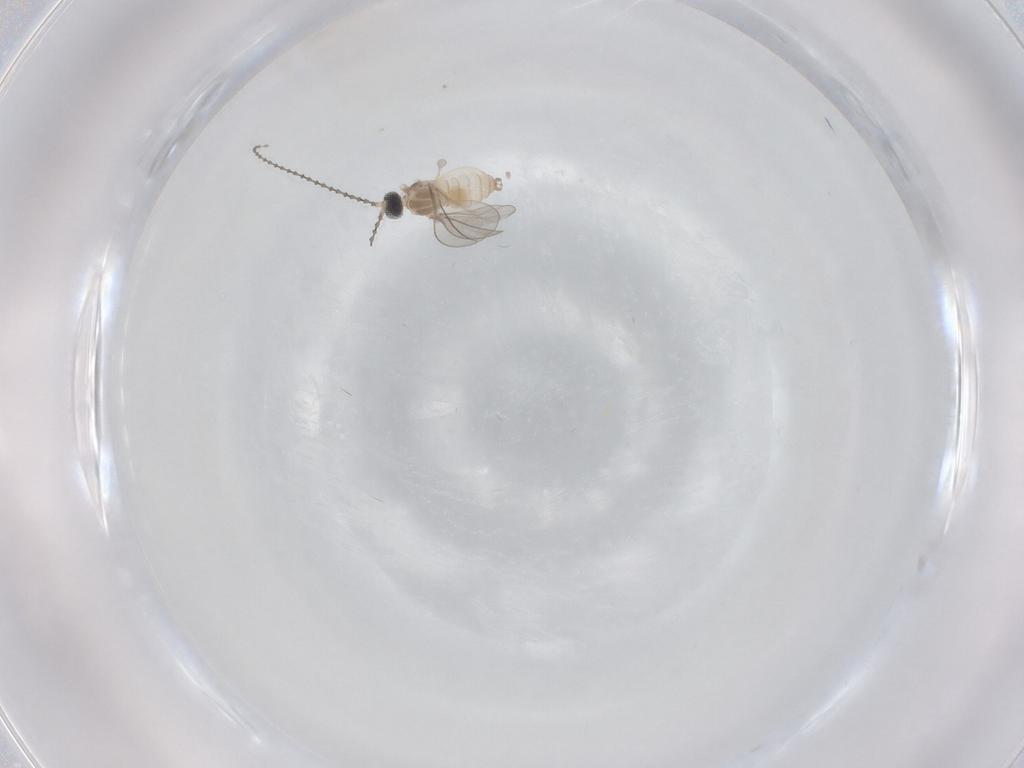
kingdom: Animalia
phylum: Arthropoda
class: Insecta
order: Diptera
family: Cecidomyiidae
